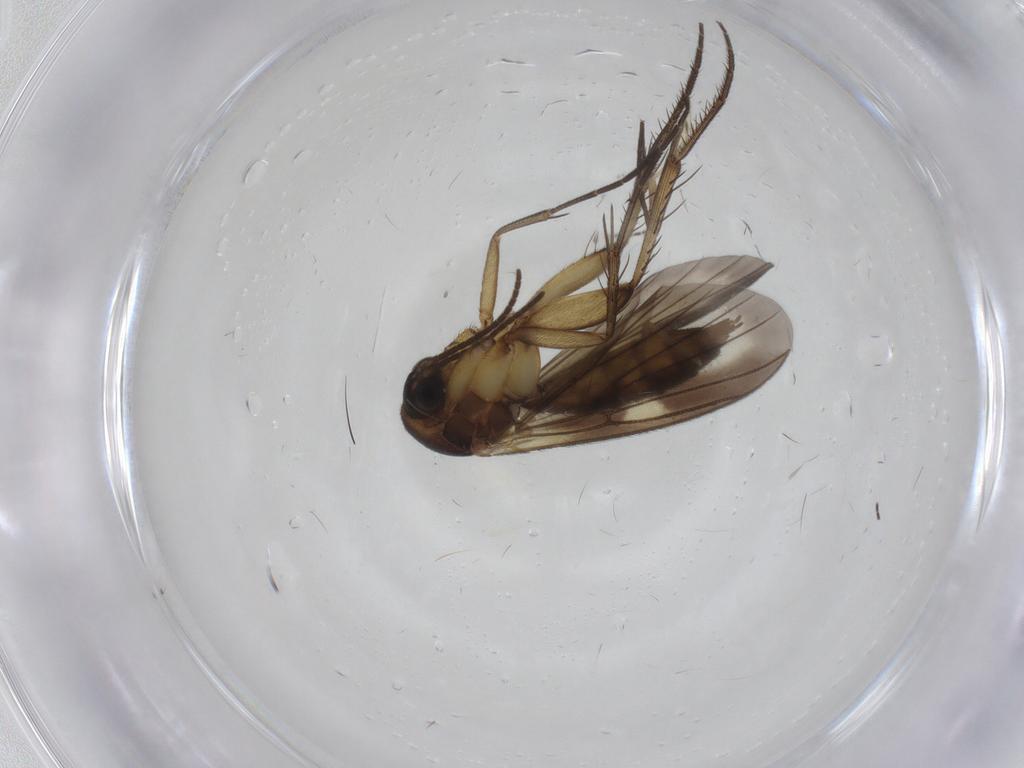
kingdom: Animalia
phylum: Arthropoda
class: Insecta
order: Diptera
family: Mycetophilidae
